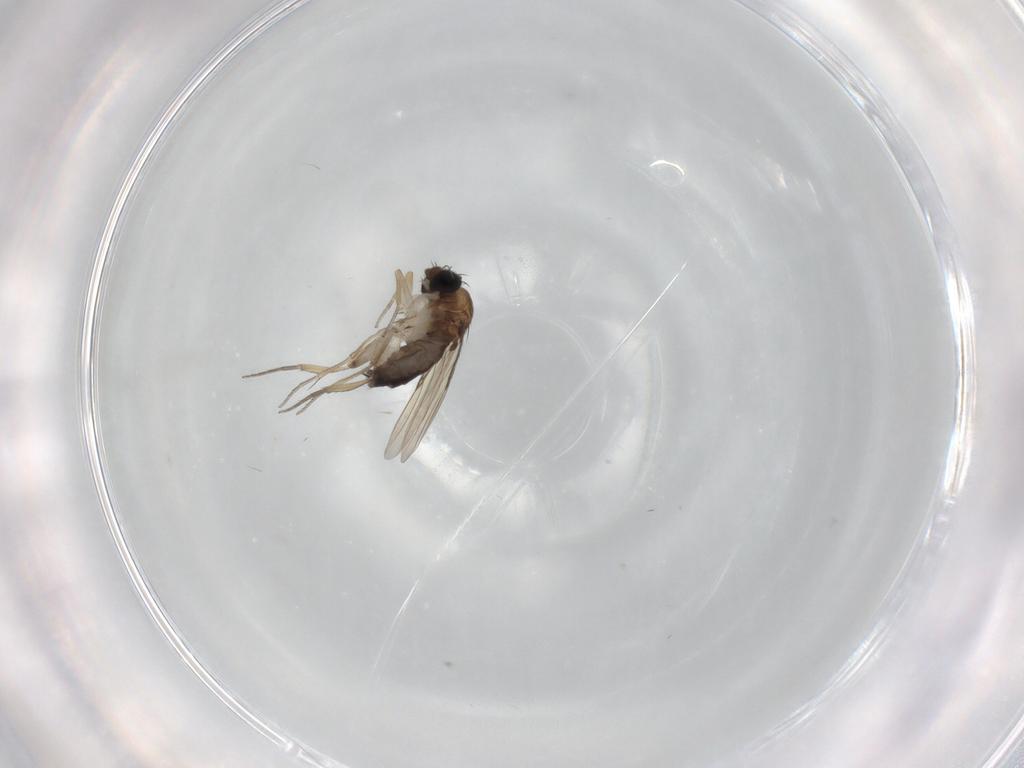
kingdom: Animalia
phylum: Arthropoda
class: Insecta
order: Diptera
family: Phoridae
